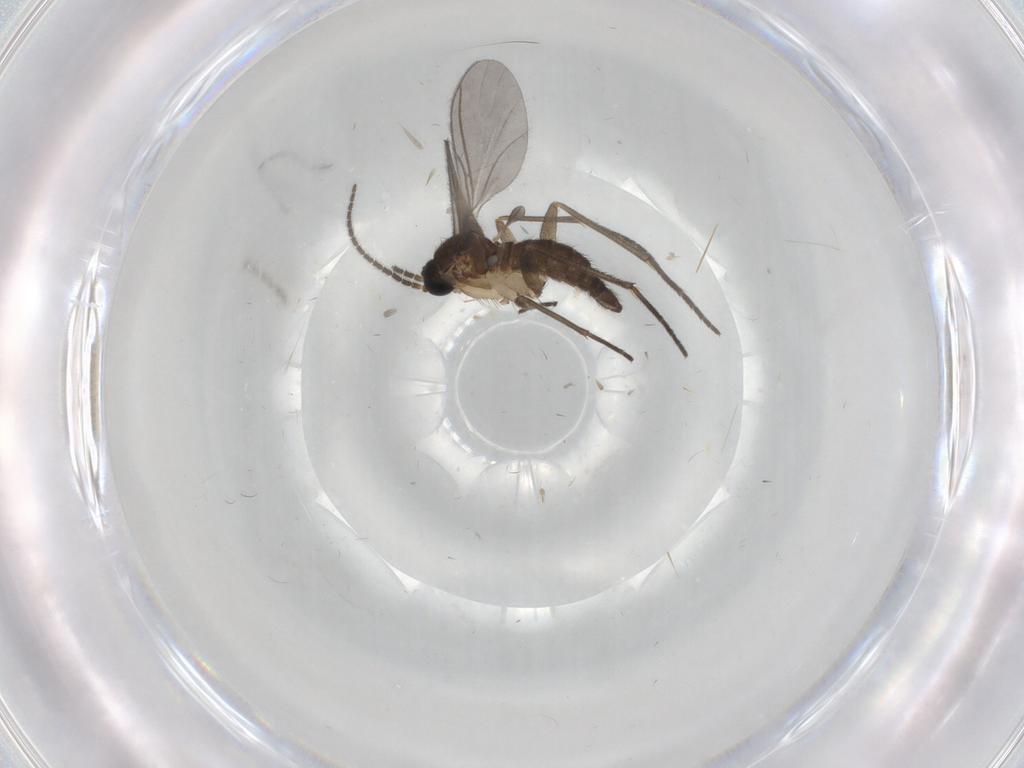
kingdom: Animalia
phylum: Arthropoda
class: Insecta
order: Diptera
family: Sciaridae
